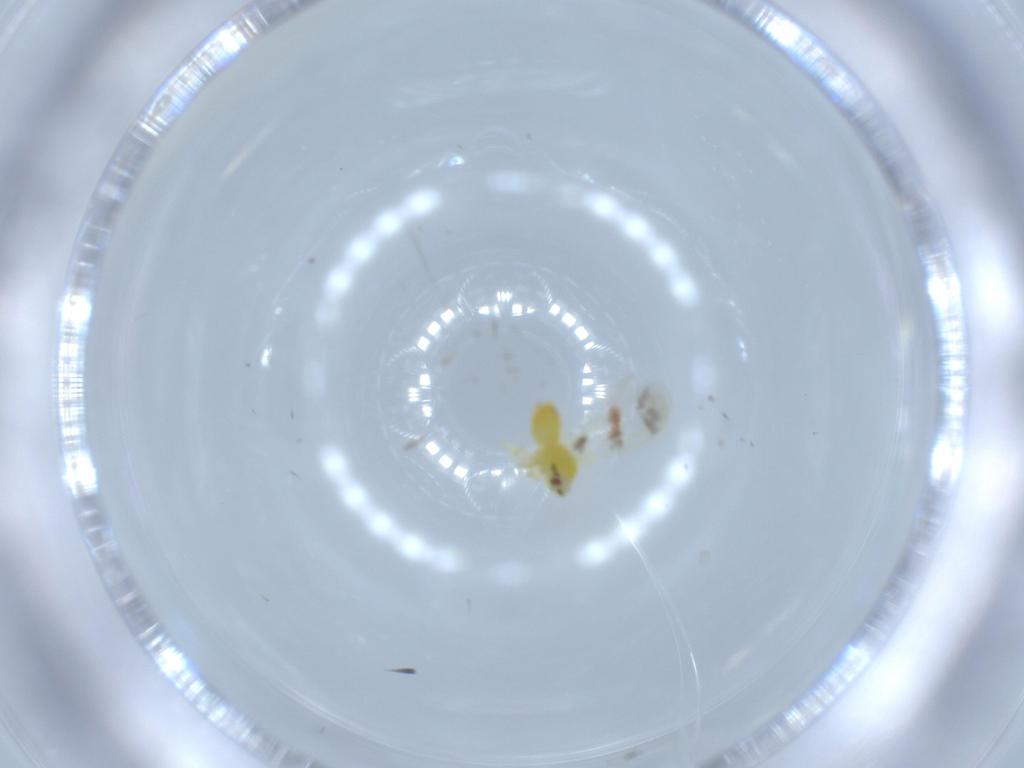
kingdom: Animalia
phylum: Arthropoda
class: Insecta
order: Hemiptera
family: Aleyrodidae
